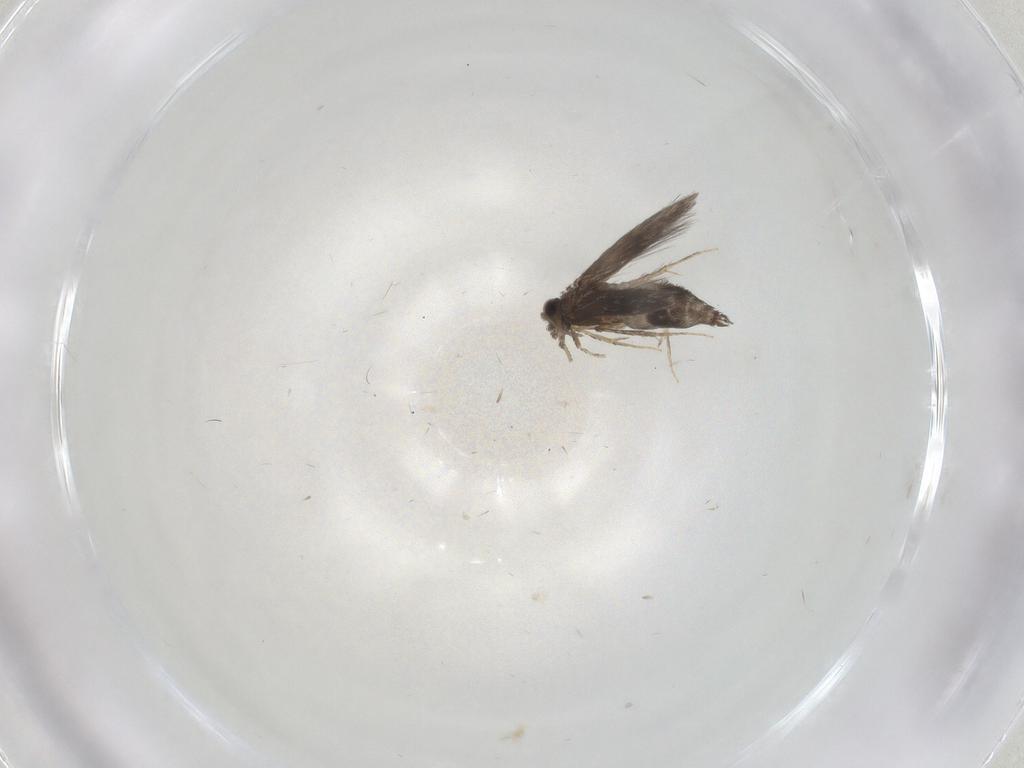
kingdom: Animalia
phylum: Arthropoda
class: Insecta
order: Trichoptera
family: Hydroptilidae
